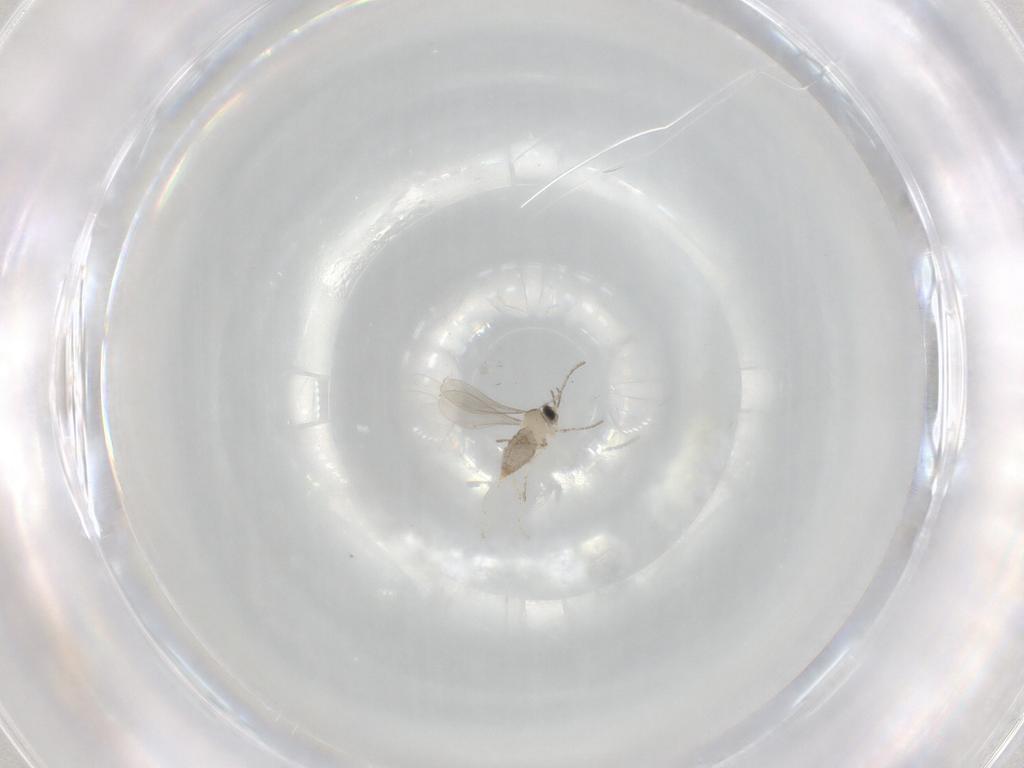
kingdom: Animalia
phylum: Arthropoda
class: Insecta
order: Diptera
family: Cecidomyiidae
